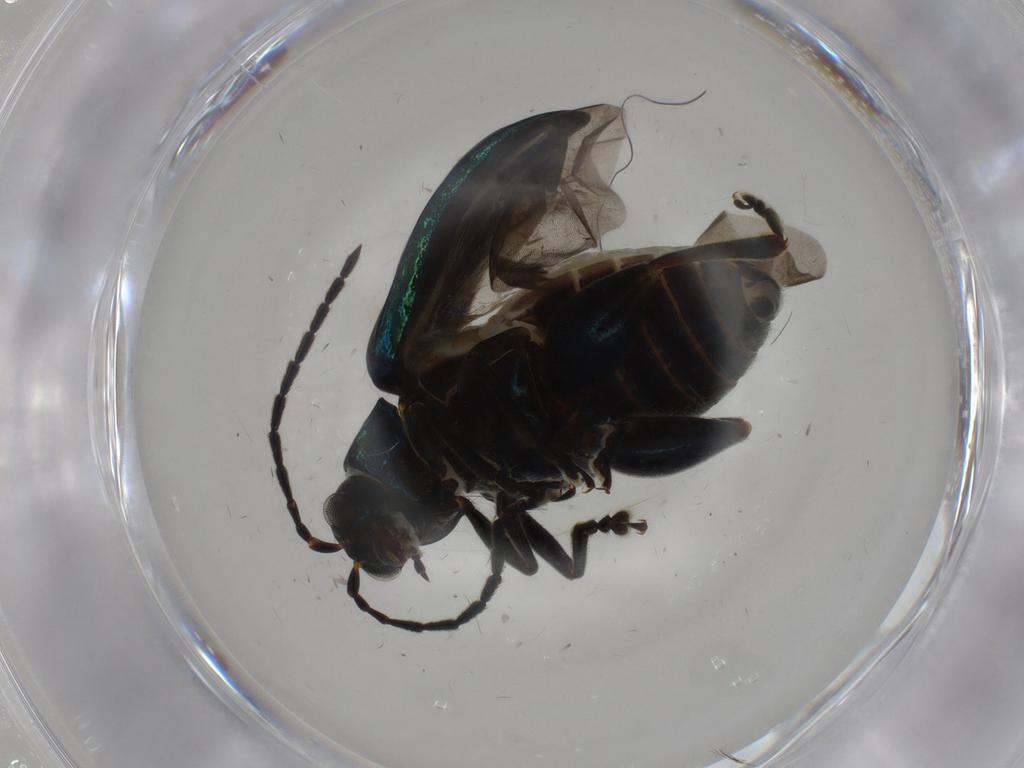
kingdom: Animalia
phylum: Arthropoda
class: Insecta
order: Coleoptera
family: Chrysomelidae
